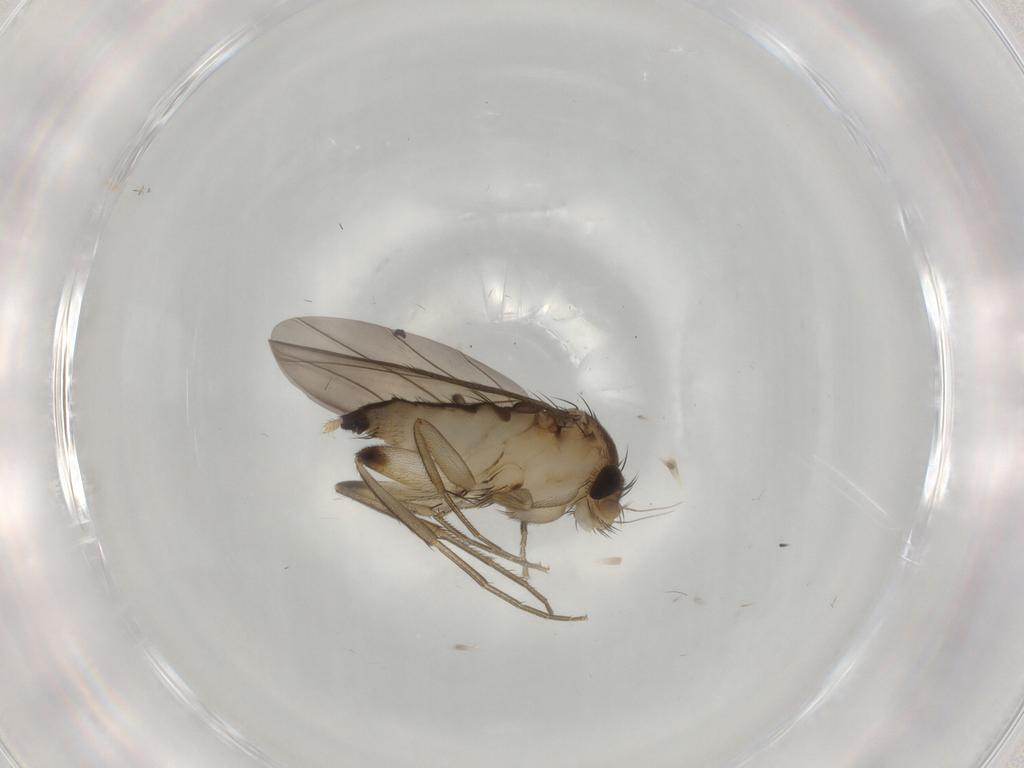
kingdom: Animalia
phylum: Arthropoda
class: Insecta
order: Diptera
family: Phoridae
